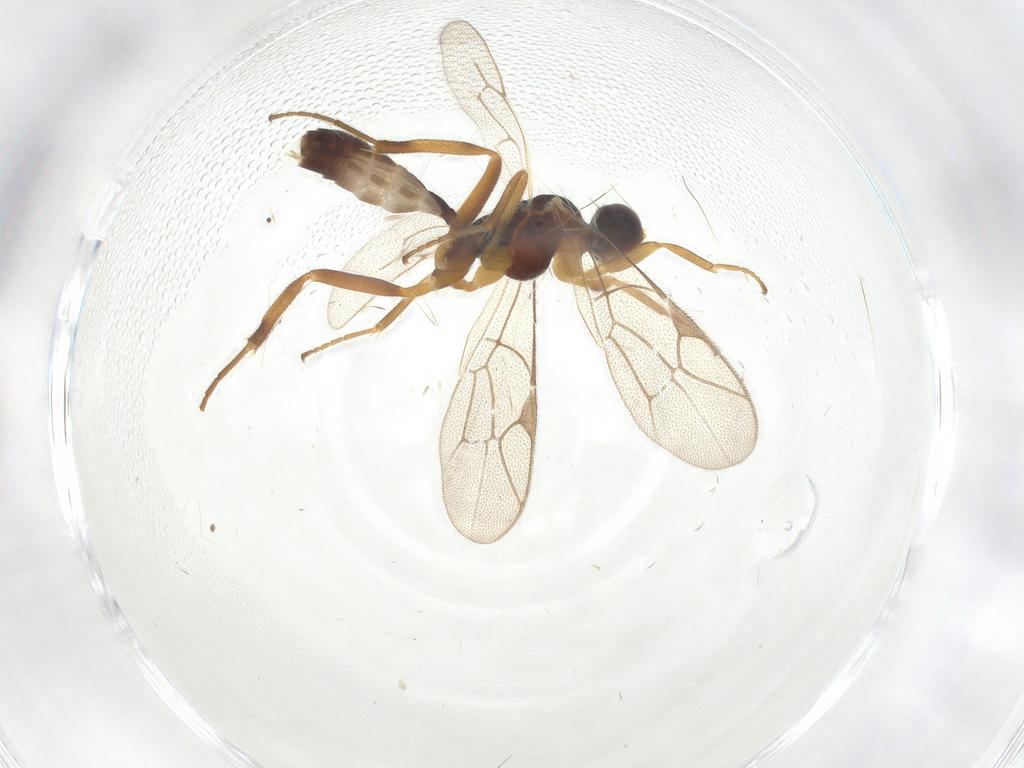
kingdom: Animalia
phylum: Arthropoda
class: Insecta
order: Hymenoptera
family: Ichneumonidae
